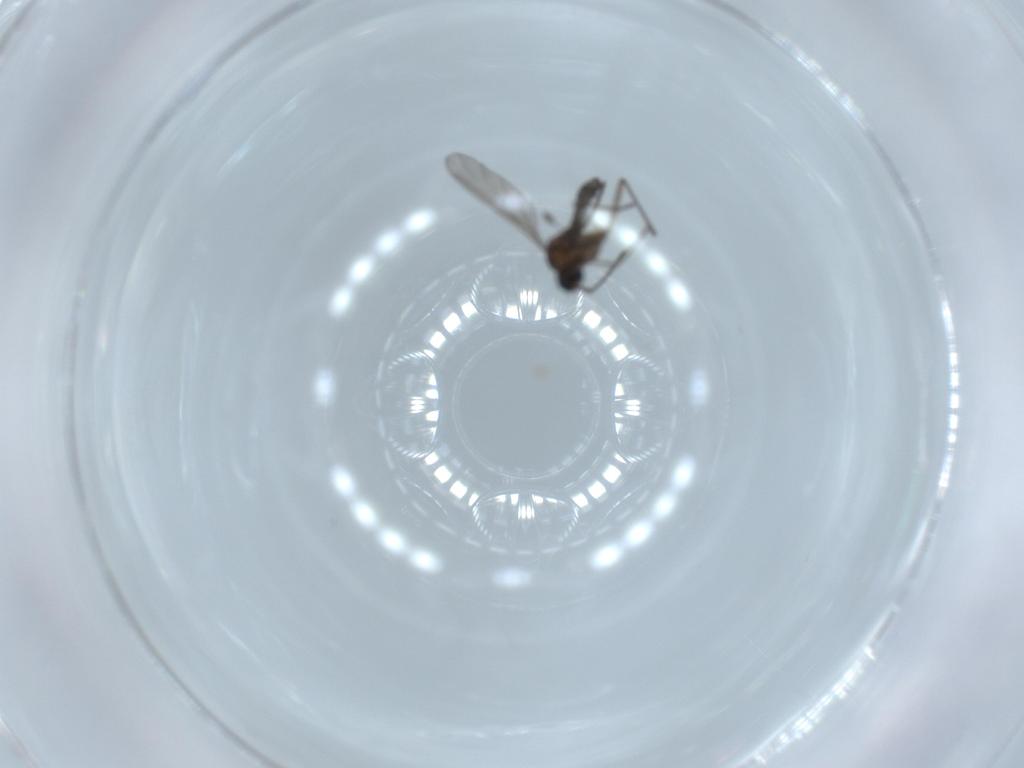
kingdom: Animalia
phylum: Arthropoda
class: Insecta
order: Diptera
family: Sciaridae
